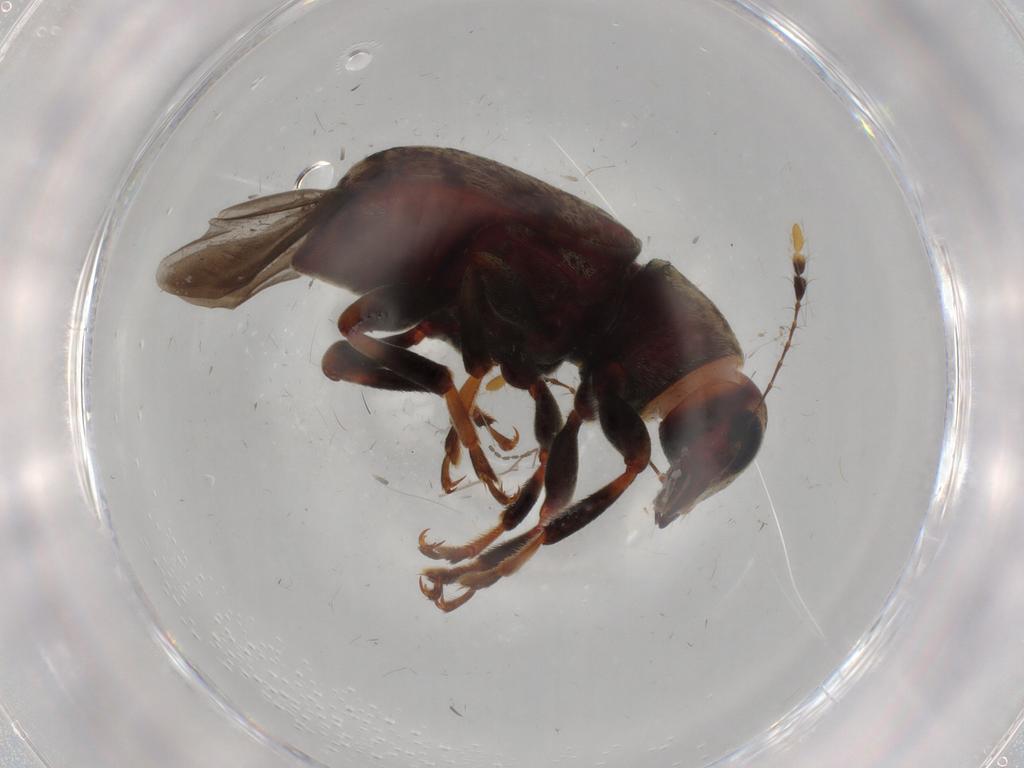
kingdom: Animalia
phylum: Arthropoda
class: Insecta
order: Coleoptera
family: Anthribidae
